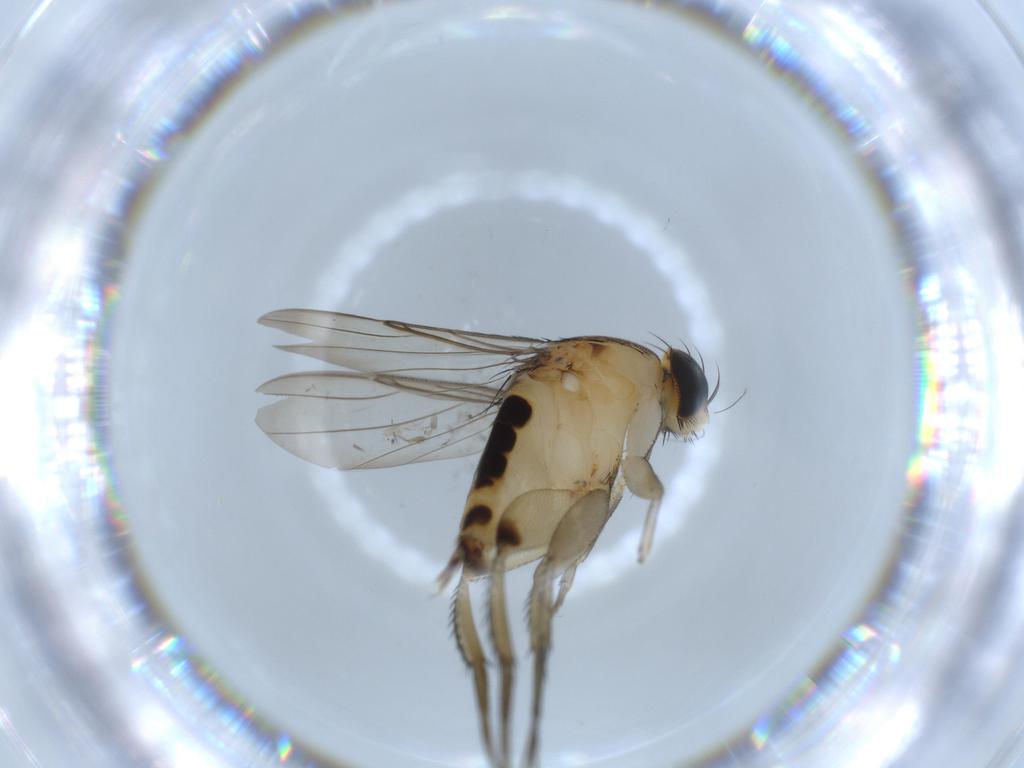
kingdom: Animalia
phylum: Arthropoda
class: Insecta
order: Diptera
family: Phoridae
